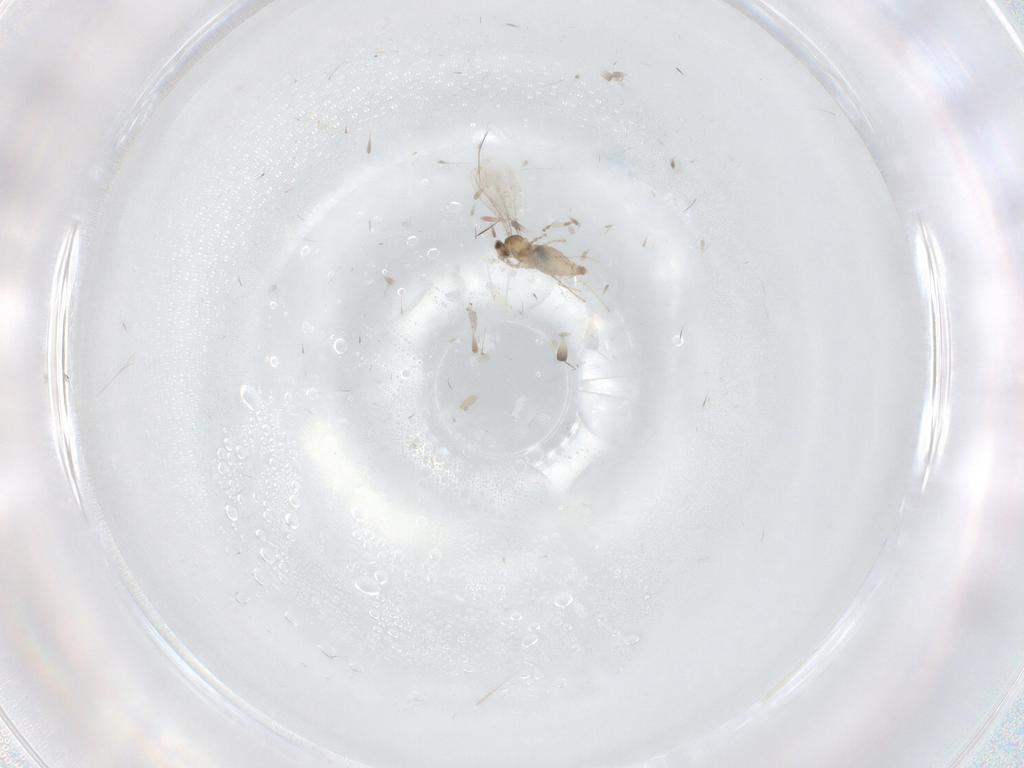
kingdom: Animalia
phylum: Arthropoda
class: Insecta
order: Diptera
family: Cecidomyiidae
